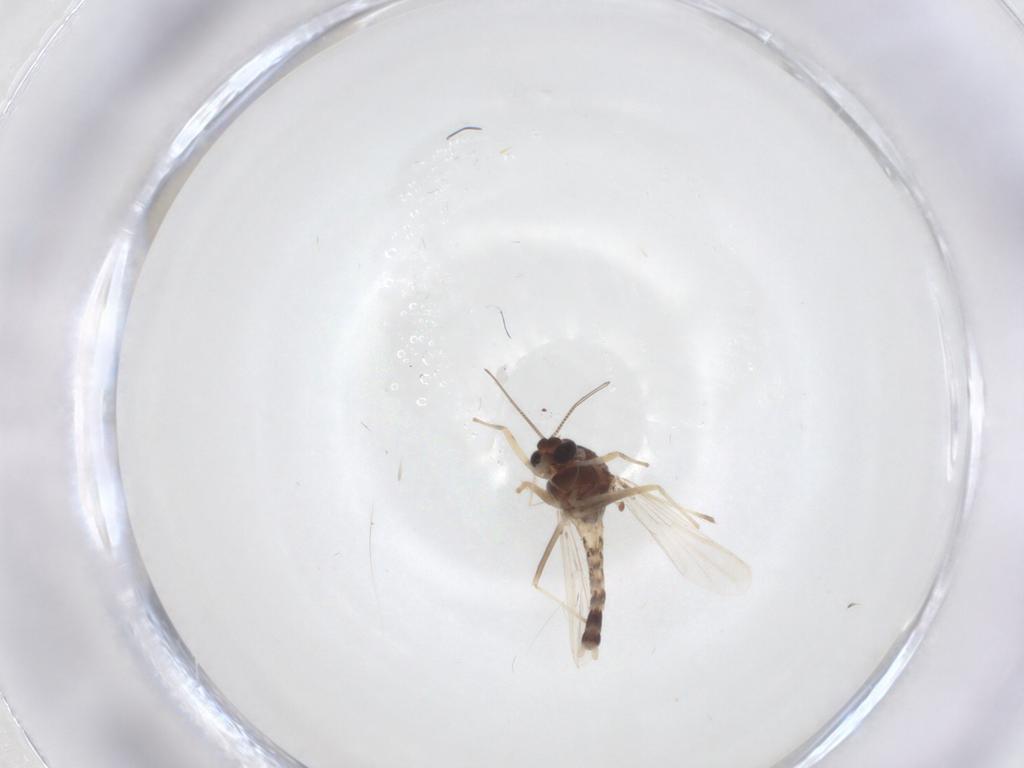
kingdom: Animalia
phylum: Arthropoda
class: Insecta
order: Diptera
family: Chironomidae
